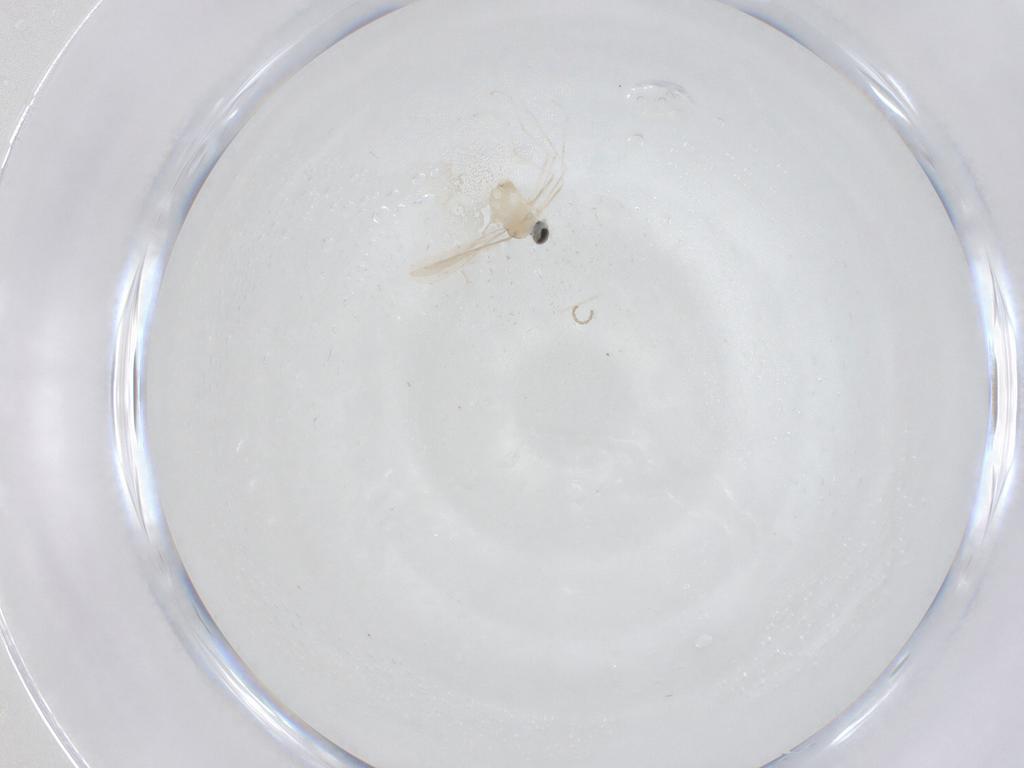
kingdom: Animalia
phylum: Arthropoda
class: Insecta
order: Diptera
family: Cecidomyiidae
